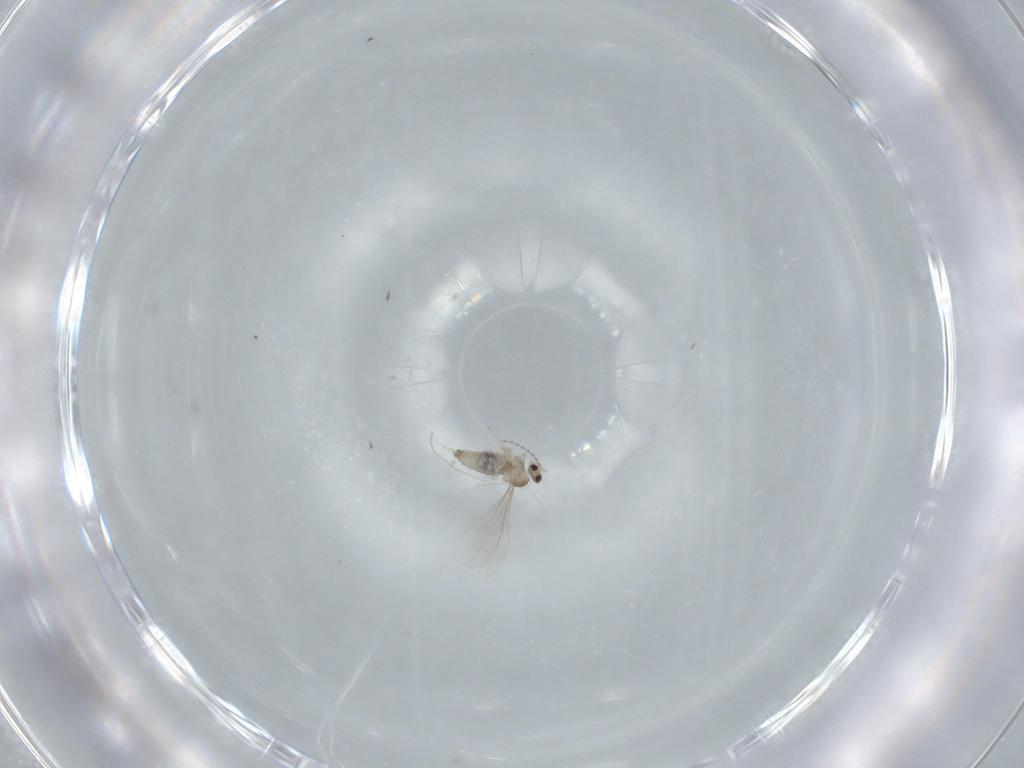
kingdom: Animalia
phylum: Arthropoda
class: Insecta
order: Diptera
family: Cecidomyiidae
